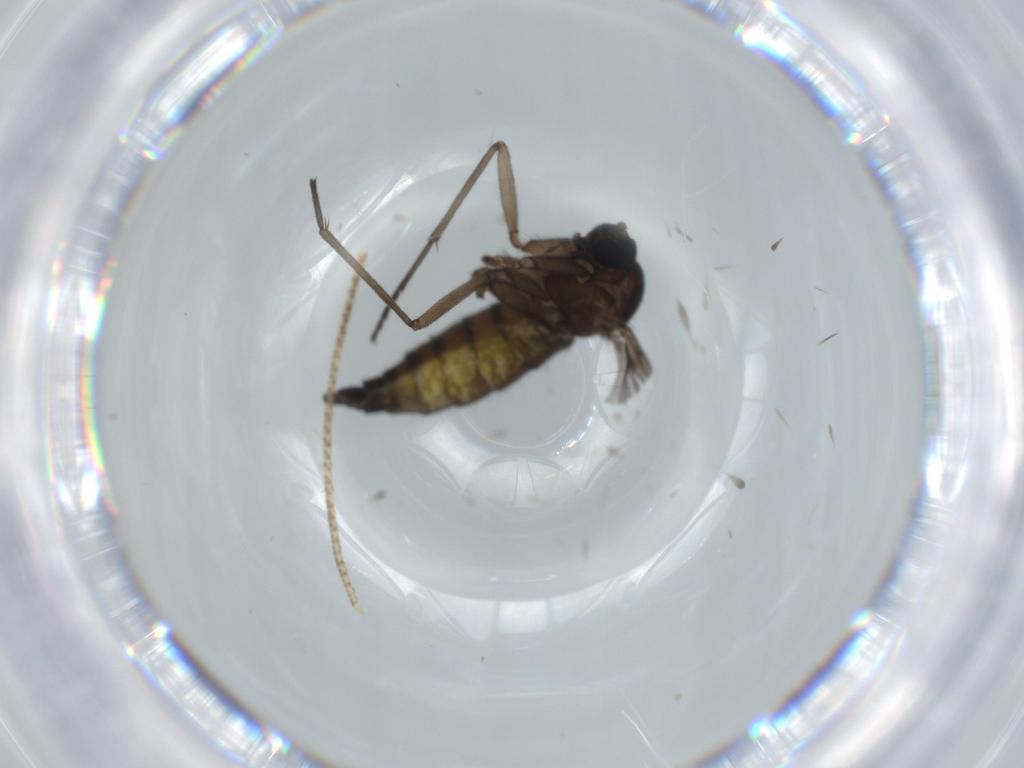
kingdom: Animalia
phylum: Arthropoda
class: Insecta
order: Diptera
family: Sciaridae
